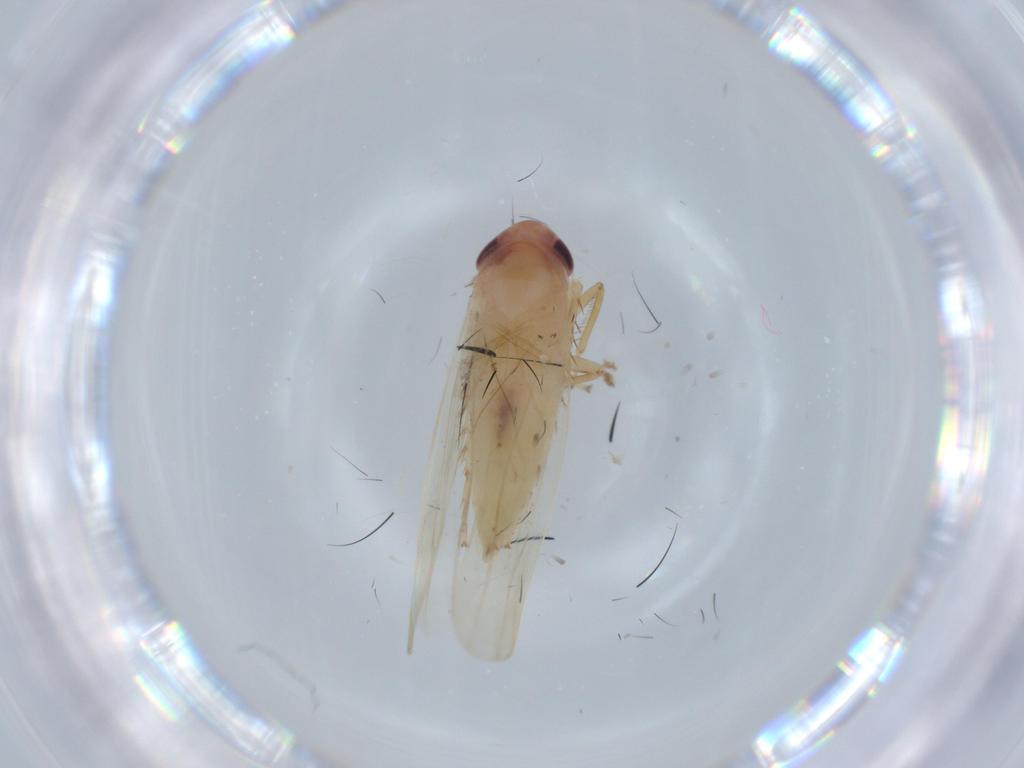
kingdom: Animalia
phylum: Arthropoda
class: Insecta
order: Hemiptera
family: Cicadellidae
